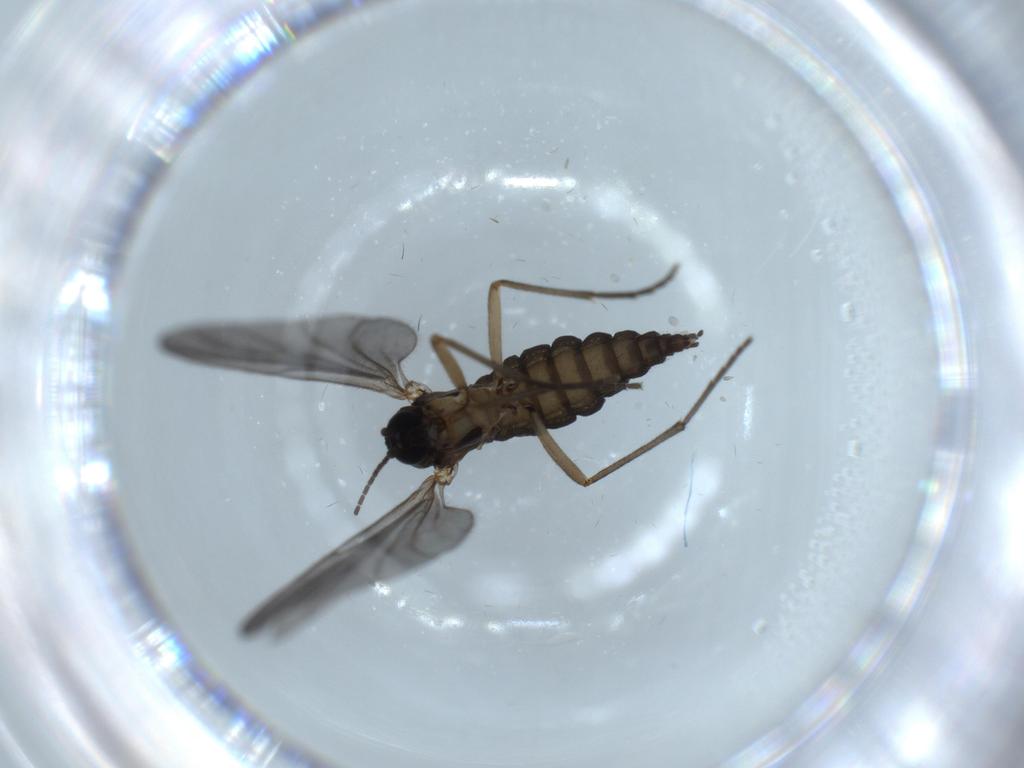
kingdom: Animalia
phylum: Arthropoda
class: Insecta
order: Diptera
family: Sciaridae
